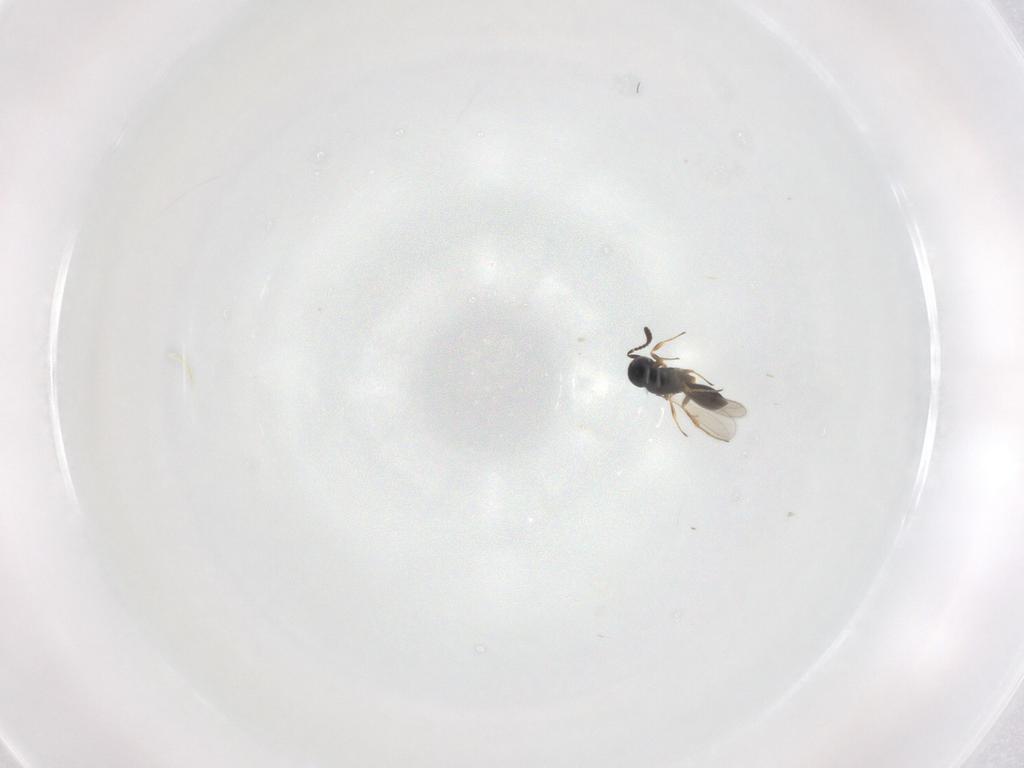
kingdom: Animalia
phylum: Arthropoda
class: Insecta
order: Hymenoptera
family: Scelionidae
